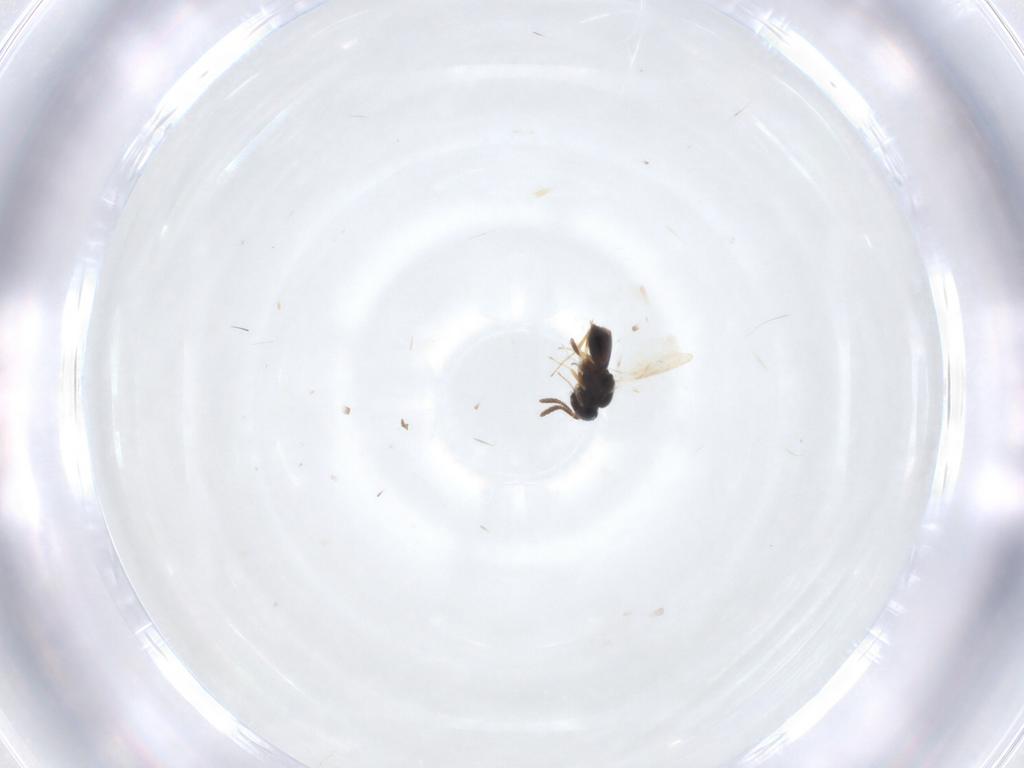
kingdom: Animalia
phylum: Arthropoda
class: Insecta
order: Hymenoptera
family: Scelionidae
